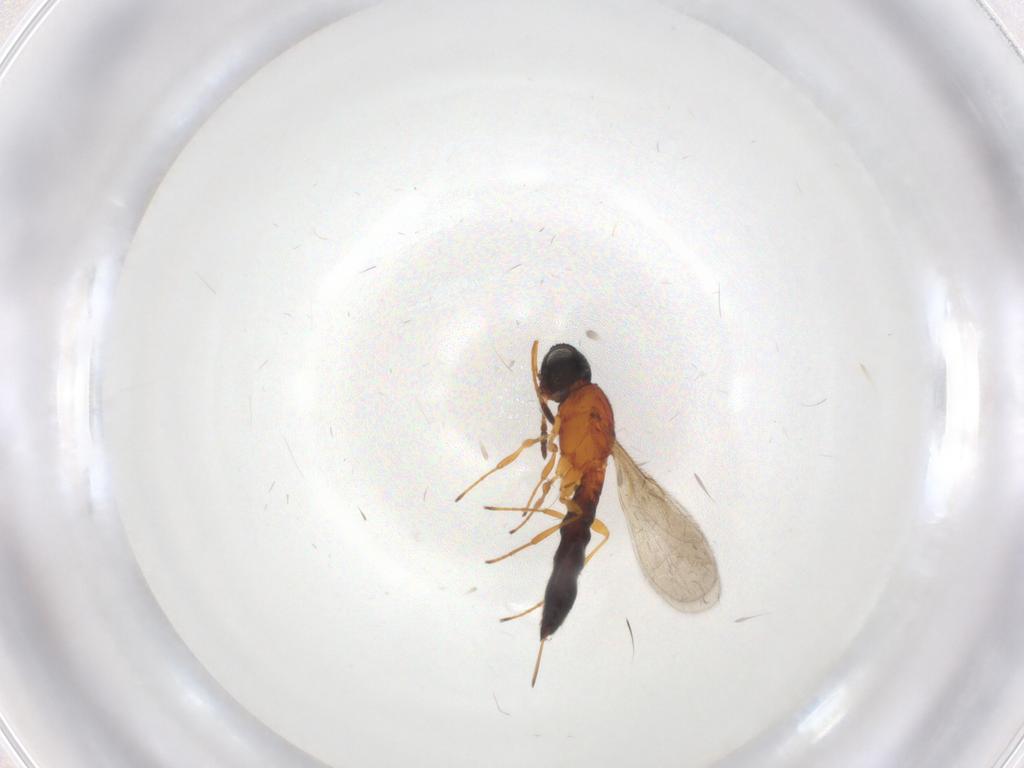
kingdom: Animalia
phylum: Arthropoda
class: Insecta
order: Hymenoptera
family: Scelionidae
